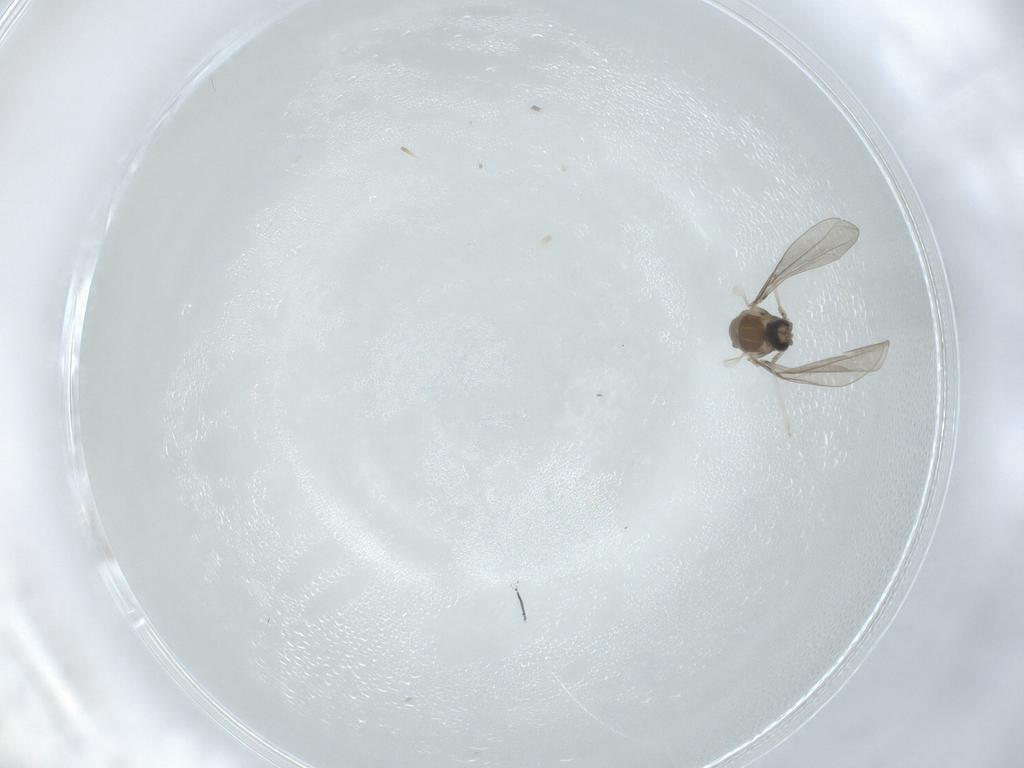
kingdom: Animalia
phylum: Arthropoda
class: Insecta
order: Diptera
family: Cecidomyiidae
